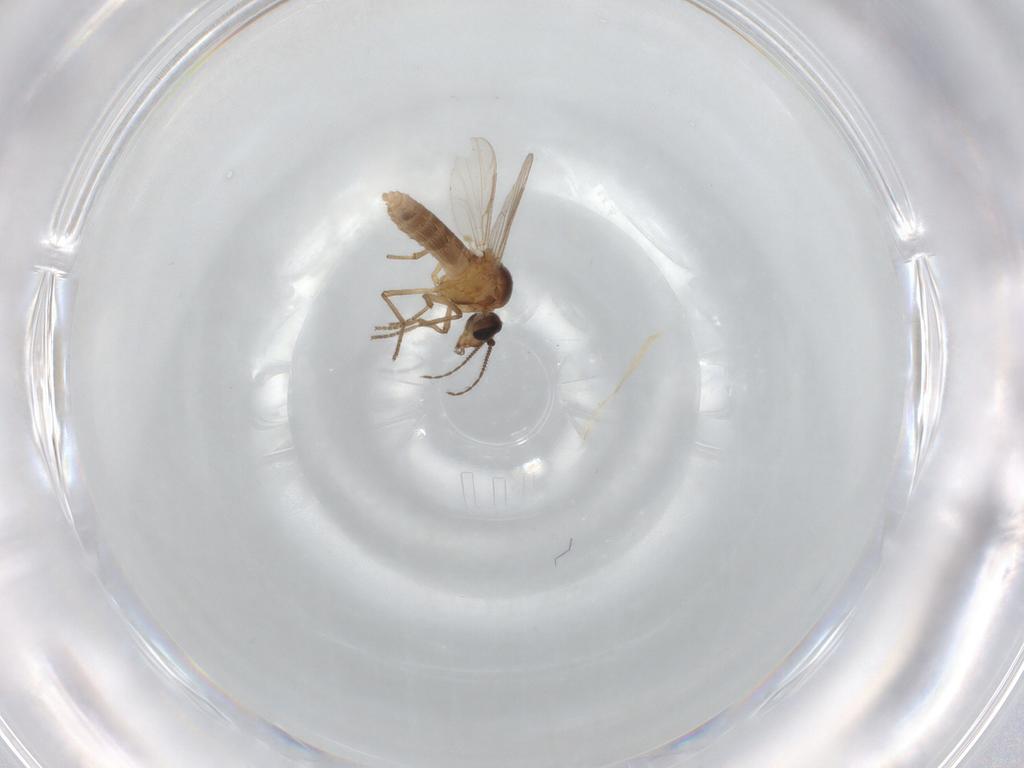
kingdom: Animalia
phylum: Arthropoda
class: Insecta
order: Diptera
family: Ceratopogonidae
